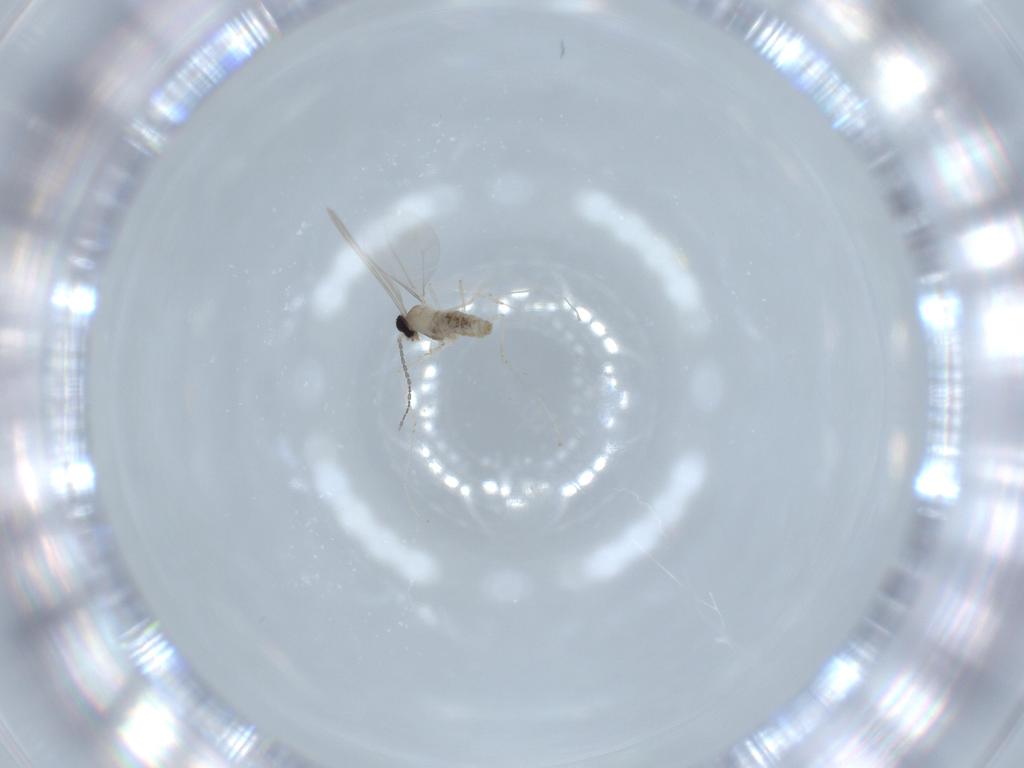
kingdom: Animalia
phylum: Arthropoda
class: Insecta
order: Diptera
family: Cecidomyiidae
